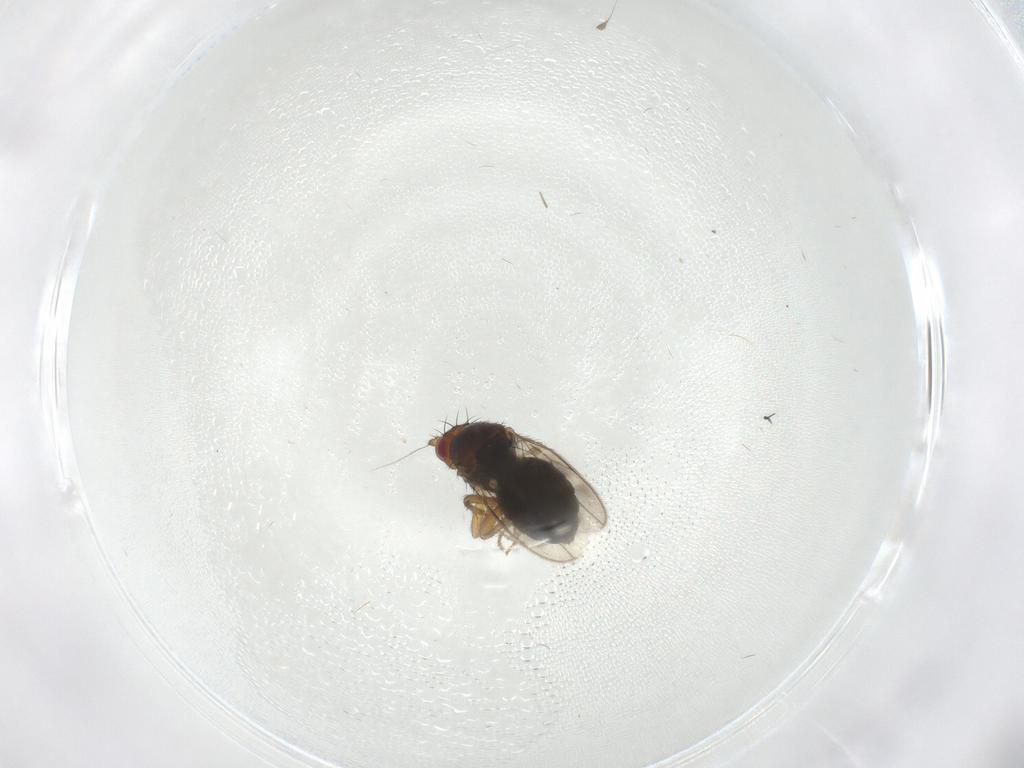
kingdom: Animalia
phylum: Arthropoda
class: Insecta
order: Diptera
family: Sphaeroceridae
